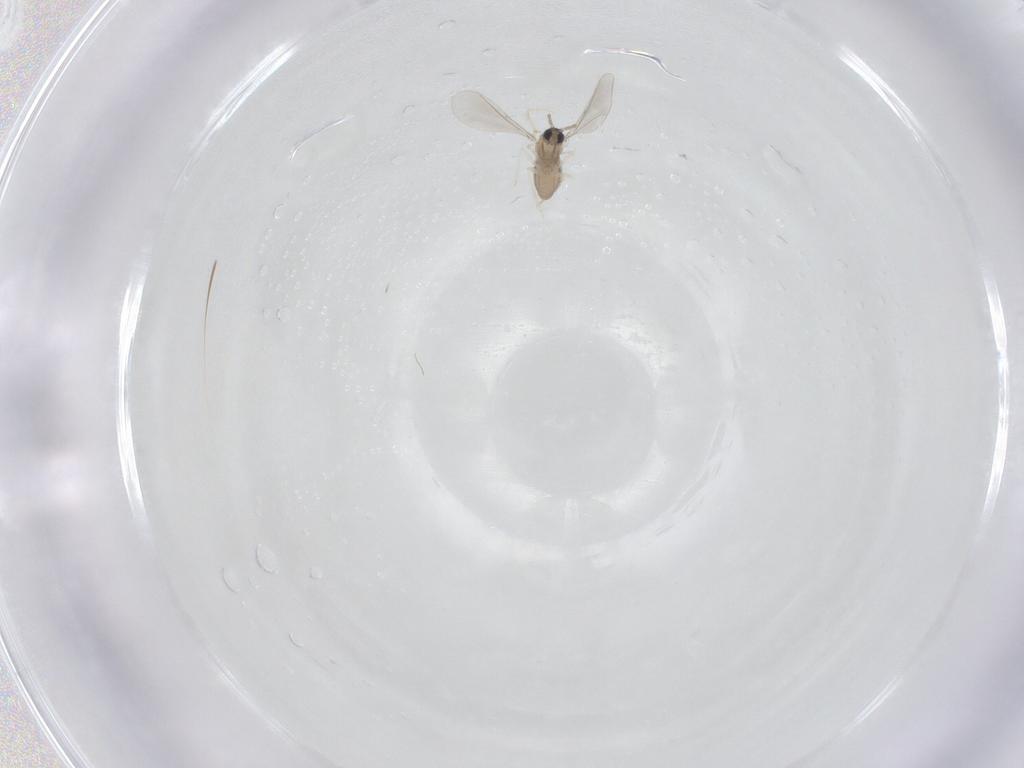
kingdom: Animalia
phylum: Arthropoda
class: Insecta
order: Diptera
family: Cecidomyiidae
